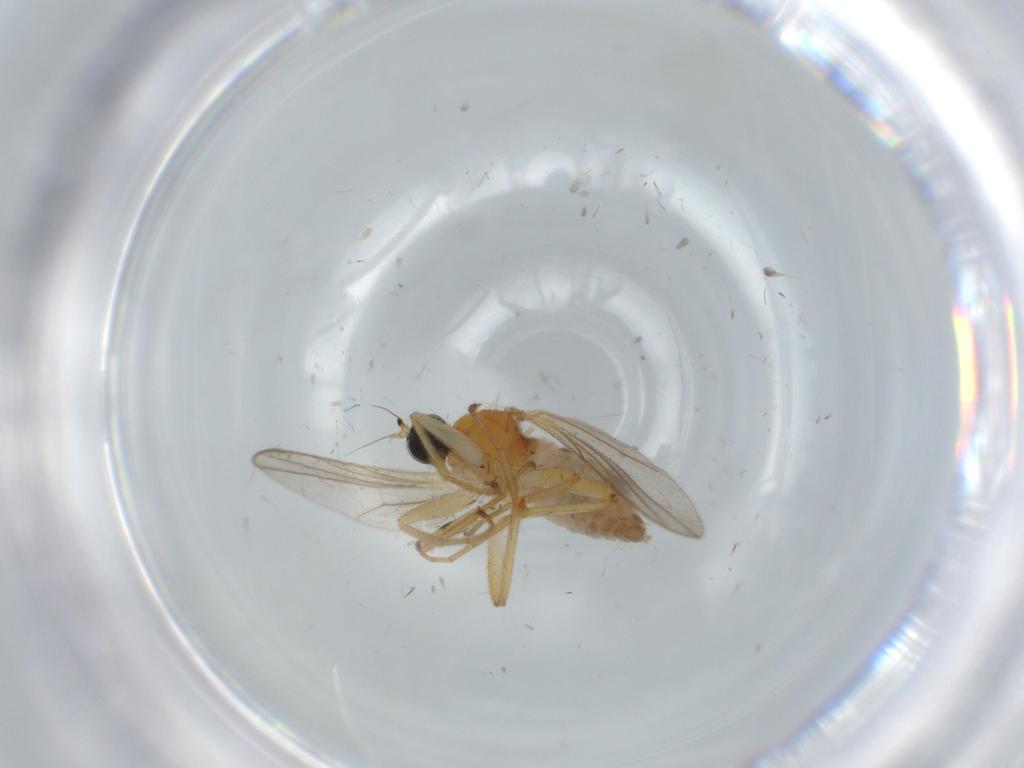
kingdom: Animalia
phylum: Arthropoda
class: Insecta
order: Diptera
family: Hybotidae
